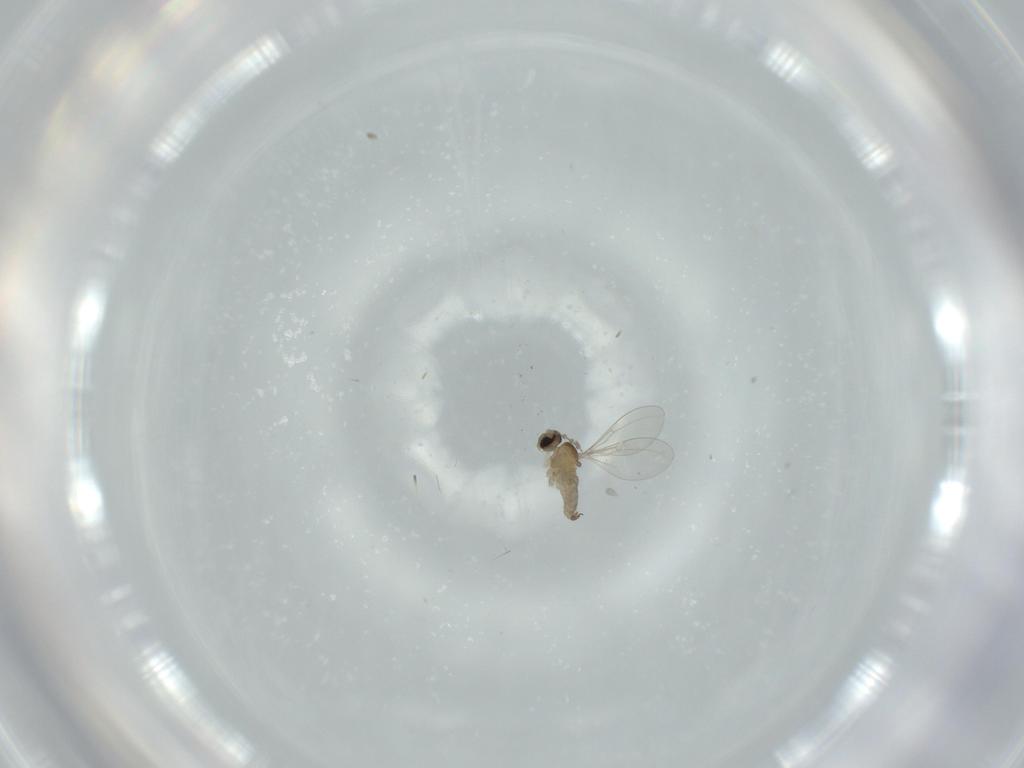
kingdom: Animalia
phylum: Arthropoda
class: Insecta
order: Diptera
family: Cecidomyiidae
